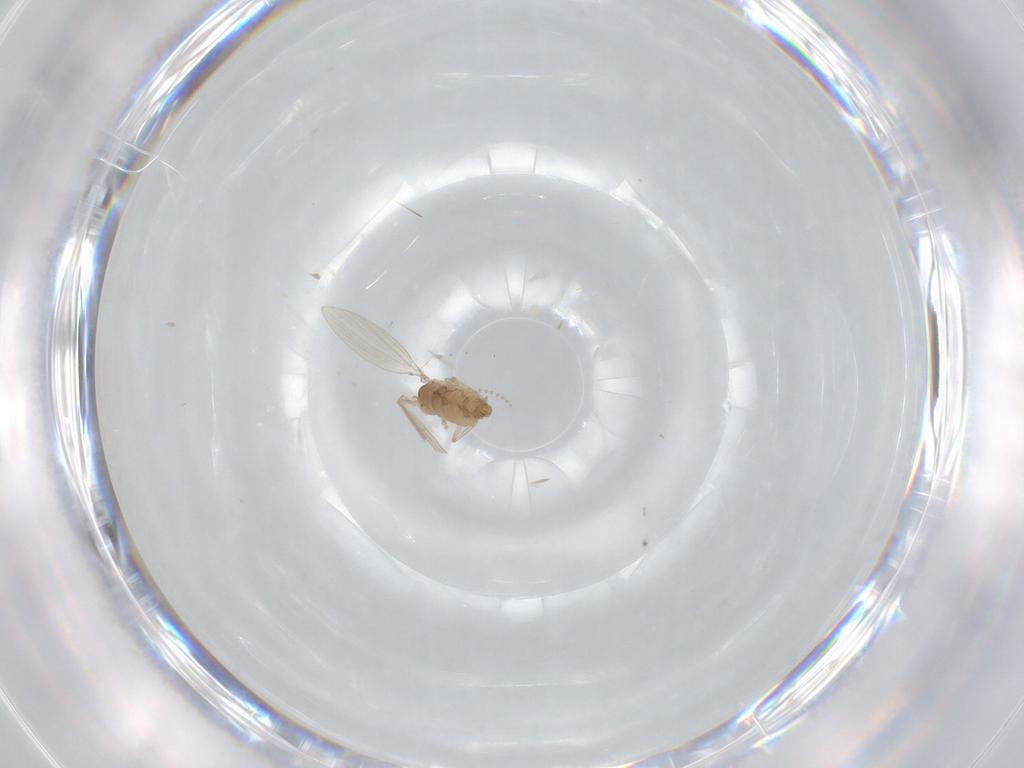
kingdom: Animalia
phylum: Arthropoda
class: Insecta
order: Diptera
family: Psychodidae
